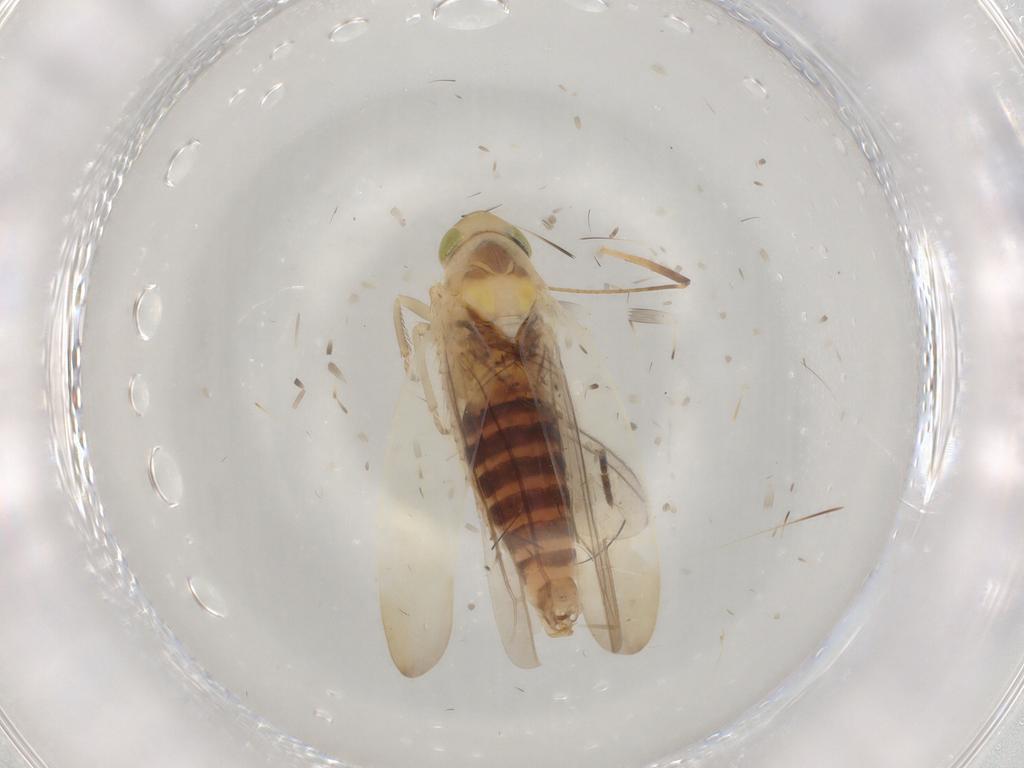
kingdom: Animalia
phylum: Arthropoda
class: Insecta
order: Hemiptera
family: Aphididae
